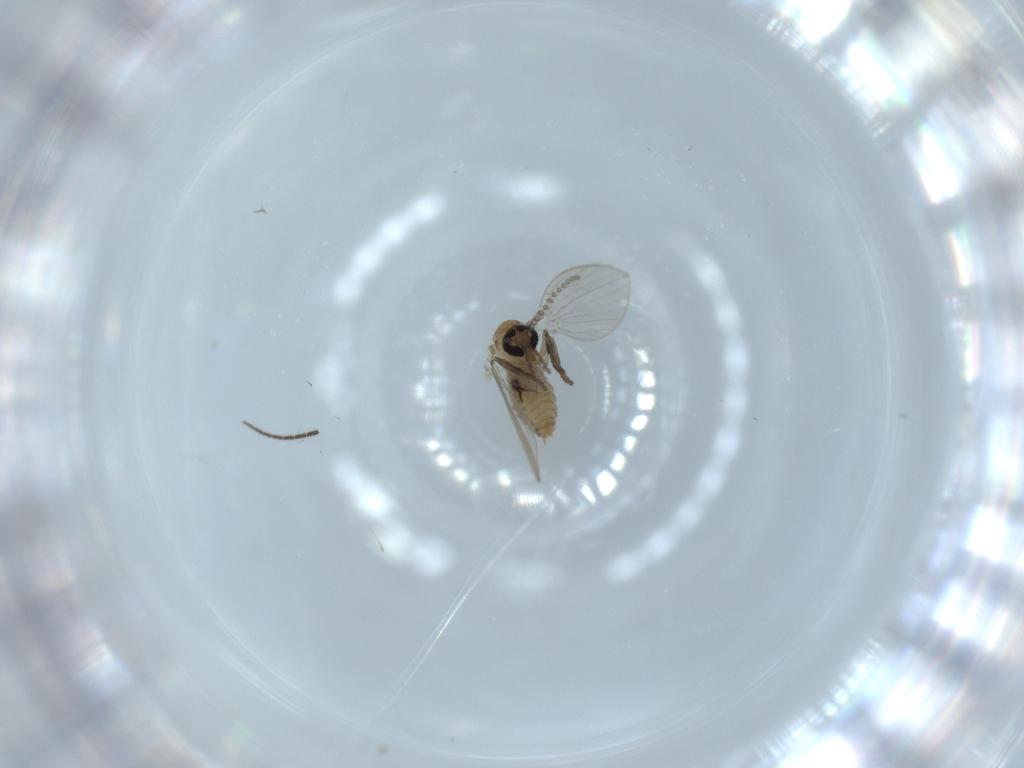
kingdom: Animalia
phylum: Arthropoda
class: Insecta
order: Diptera
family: Psychodidae
